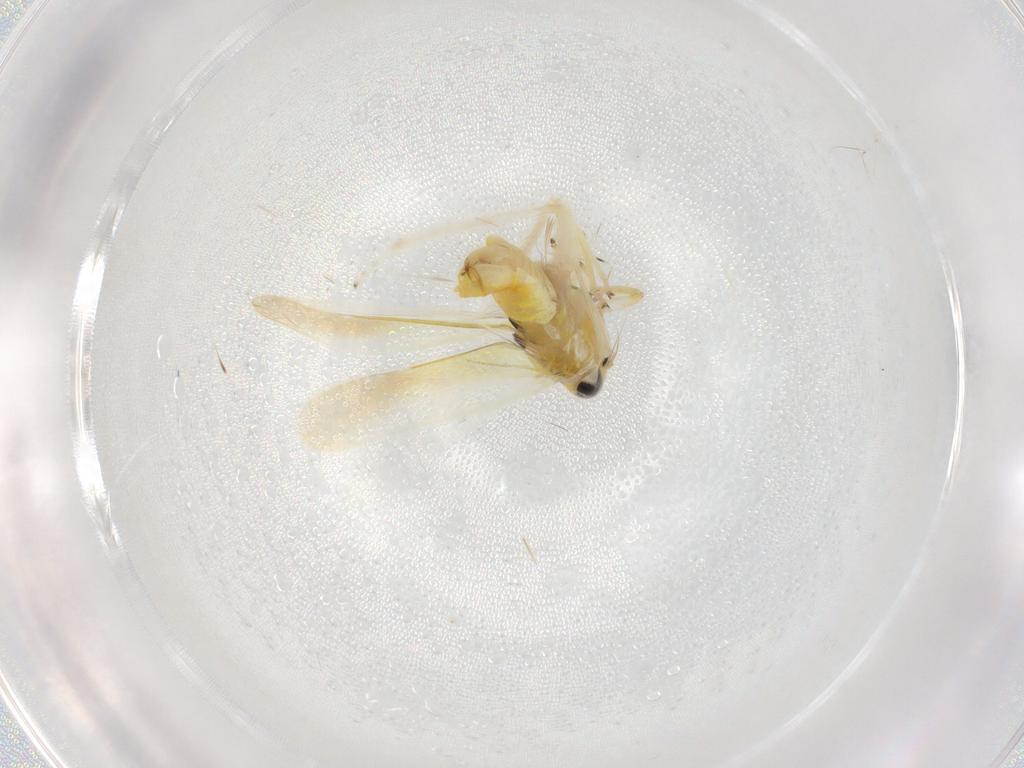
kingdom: Animalia
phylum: Arthropoda
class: Insecta
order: Hemiptera
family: Cicadellidae
